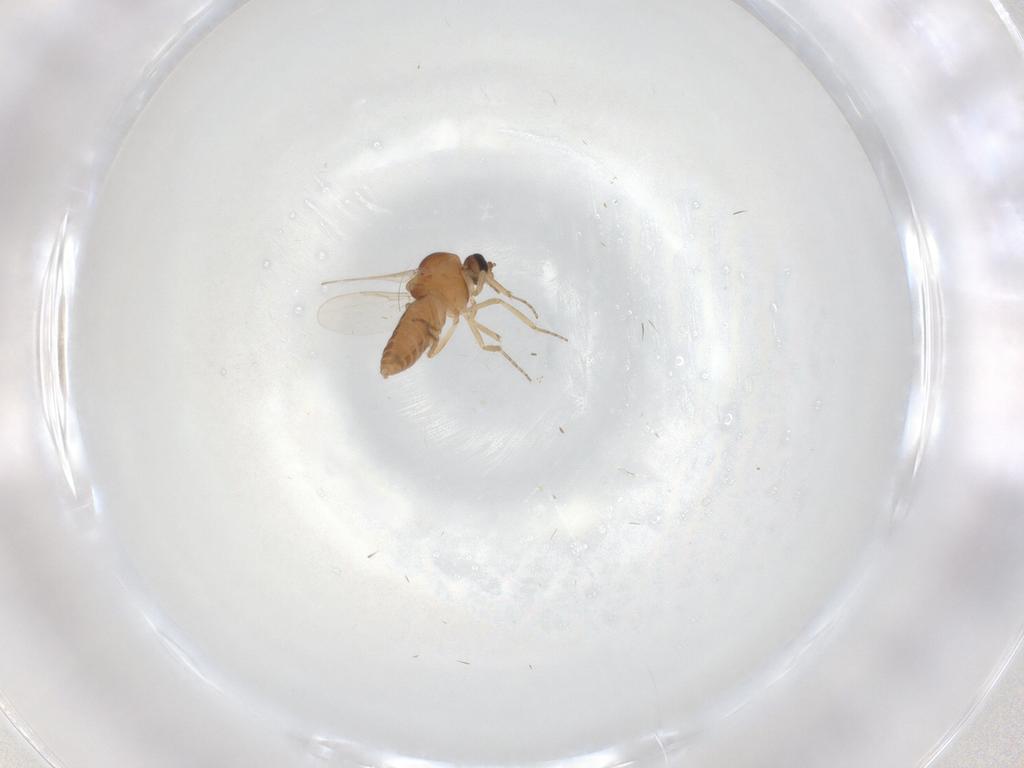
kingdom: Animalia
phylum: Arthropoda
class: Insecta
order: Diptera
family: Ceratopogonidae
